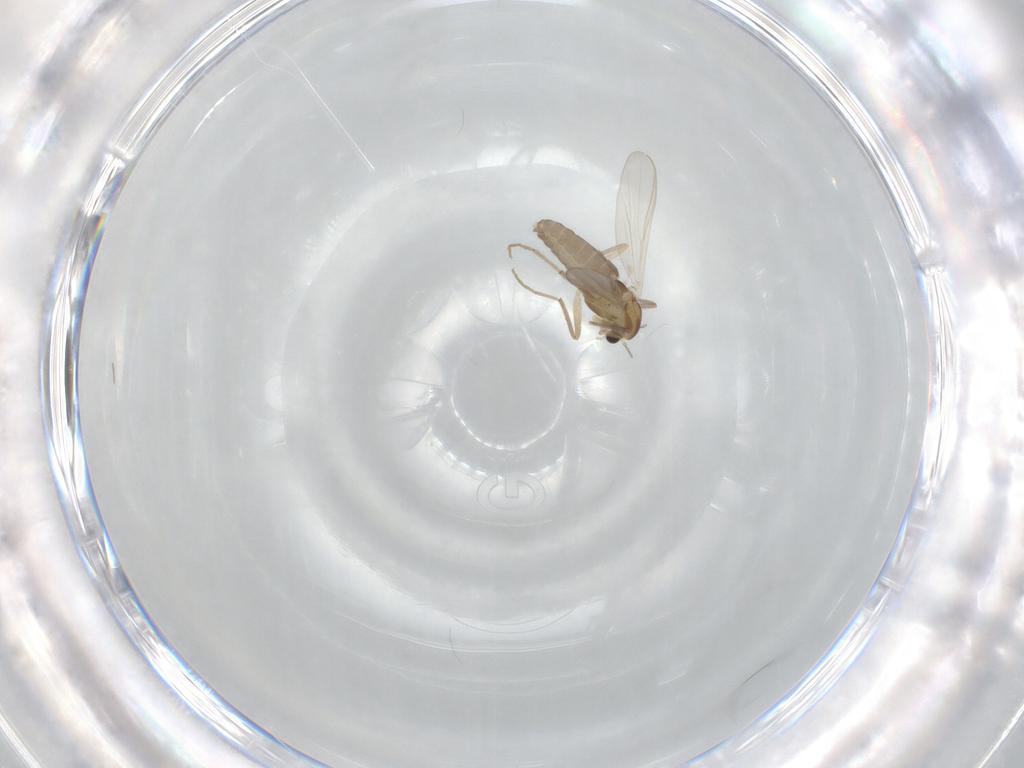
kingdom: Animalia
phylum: Arthropoda
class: Insecta
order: Diptera
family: Chironomidae
